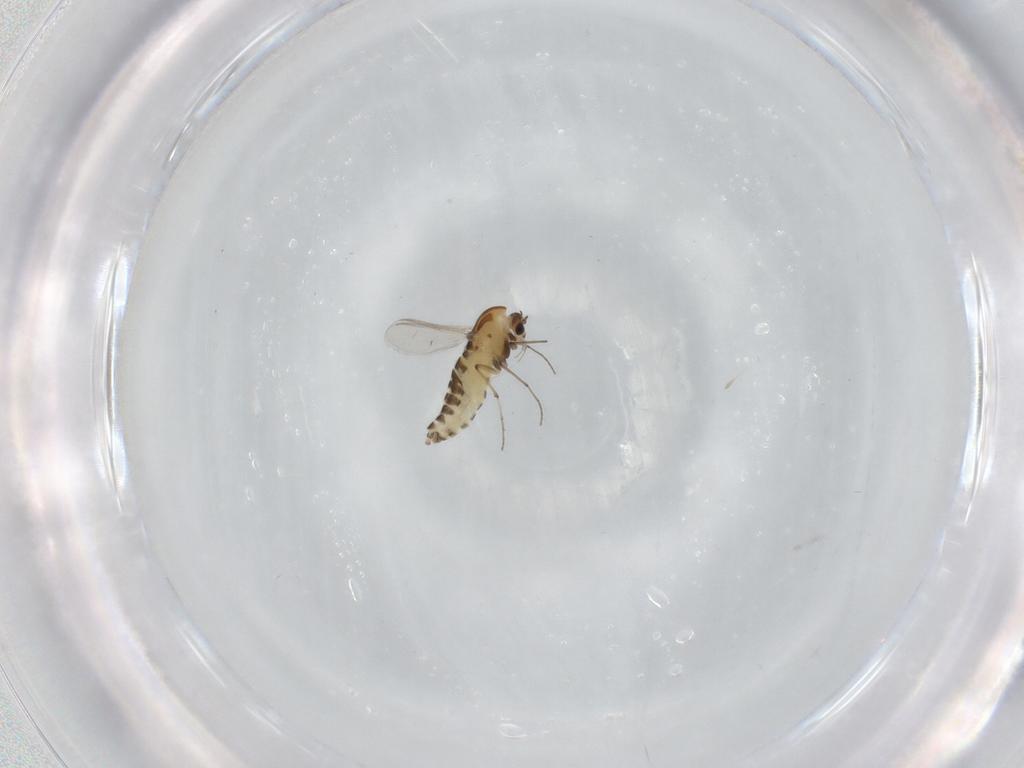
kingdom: Animalia
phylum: Arthropoda
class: Insecta
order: Diptera
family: Chironomidae
